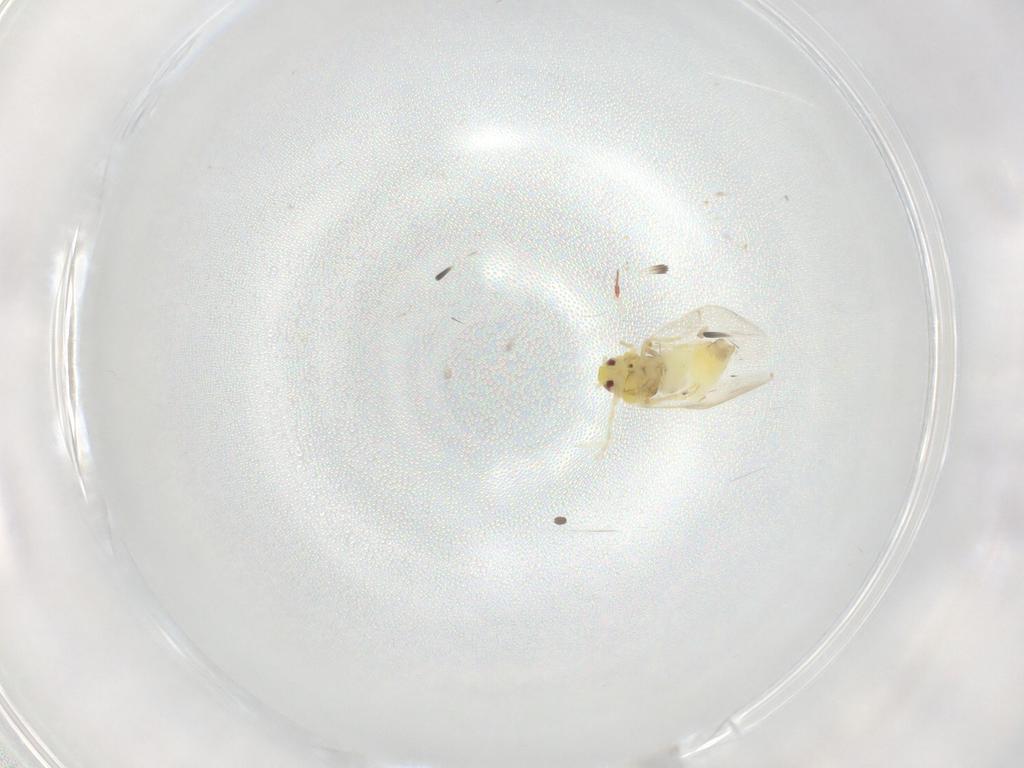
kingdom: Animalia
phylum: Arthropoda
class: Insecta
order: Hemiptera
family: Aleyrodidae
